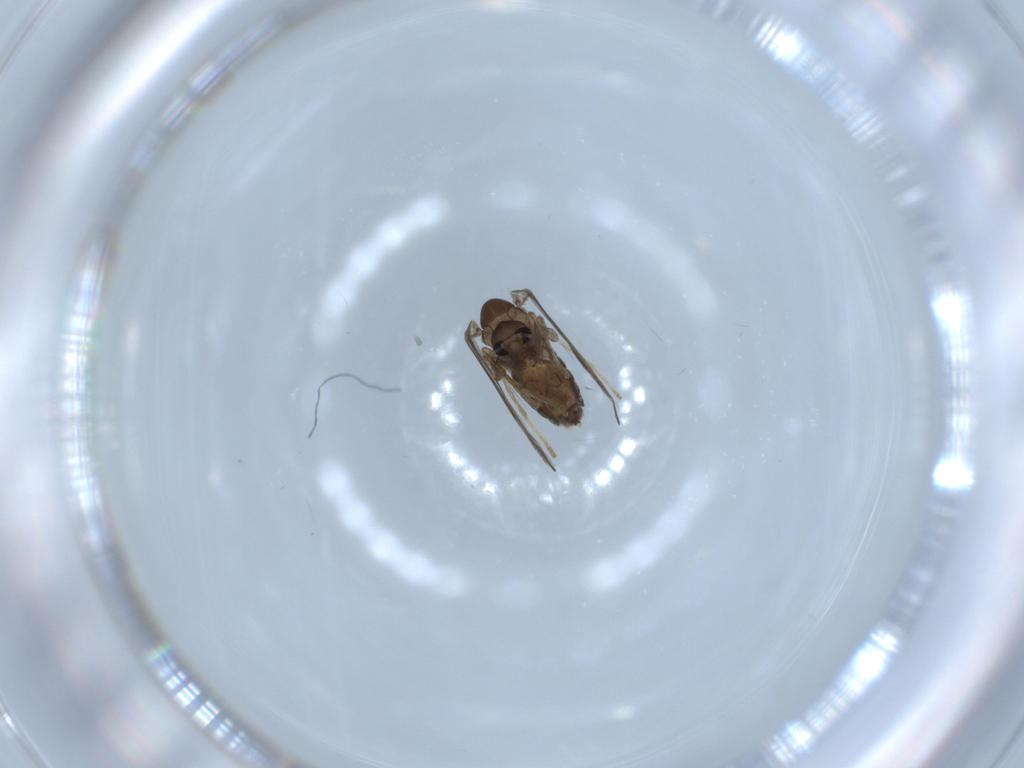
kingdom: Animalia
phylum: Arthropoda
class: Insecta
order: Diptera
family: Psychodidae
